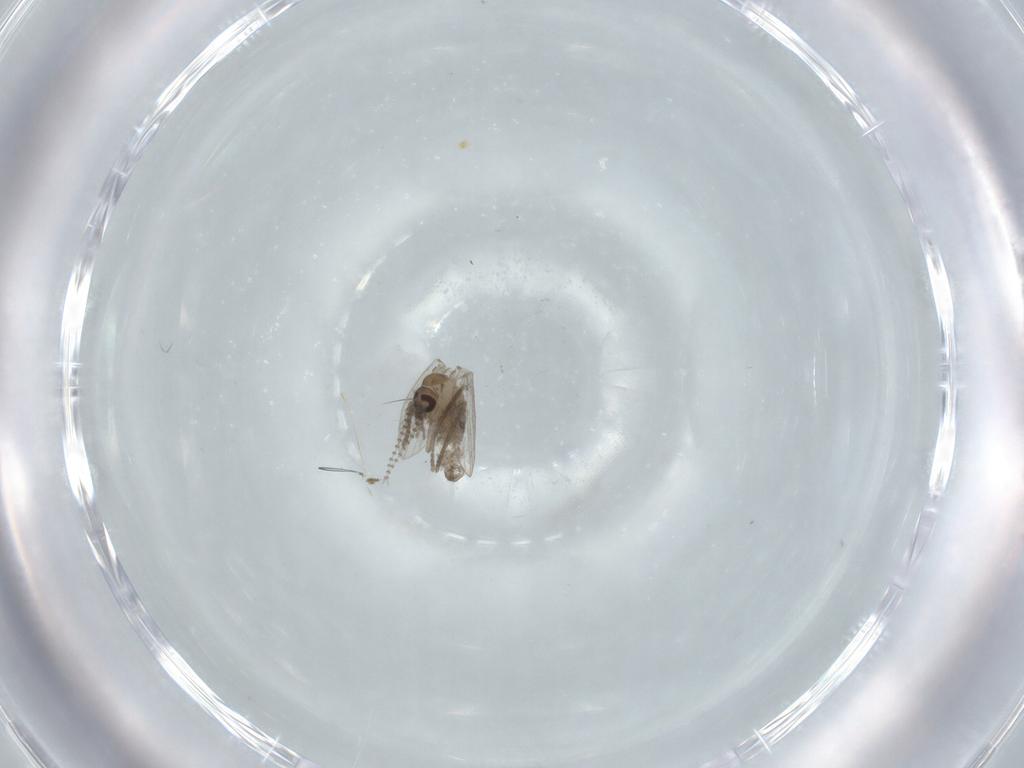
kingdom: Animalia
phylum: Arthropoda
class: Insecta
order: Diptera
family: Psychodidae
